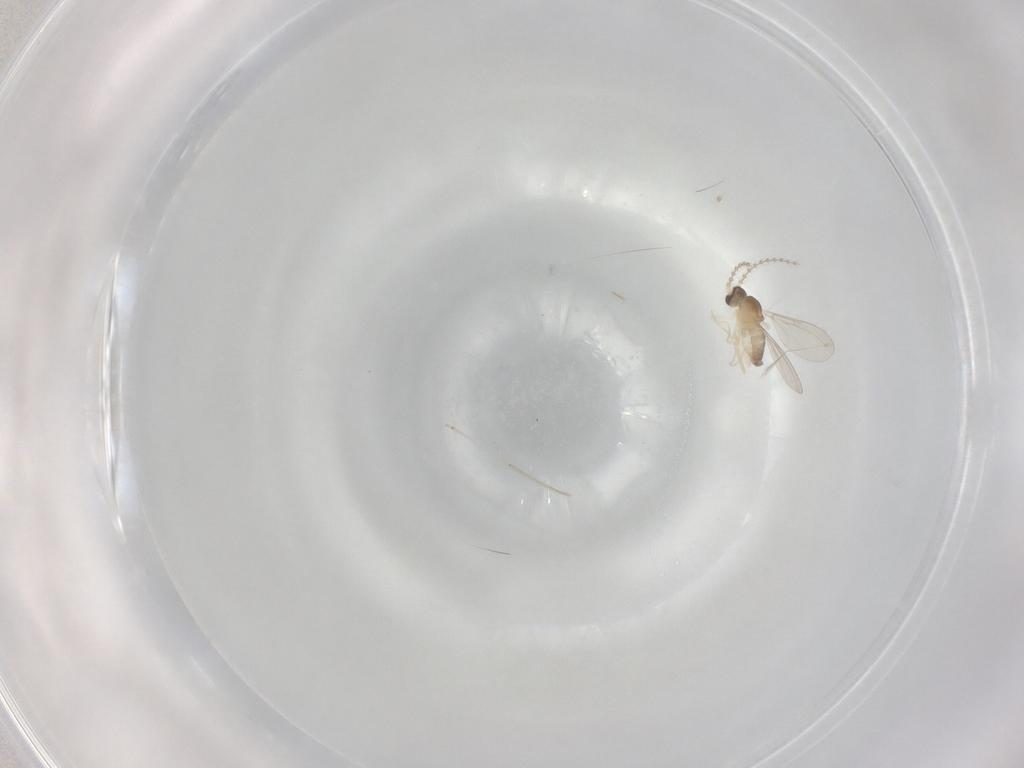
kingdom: Animalia
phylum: Arthropoda
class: Insecta
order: Diptera
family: Cecidomyiidae
